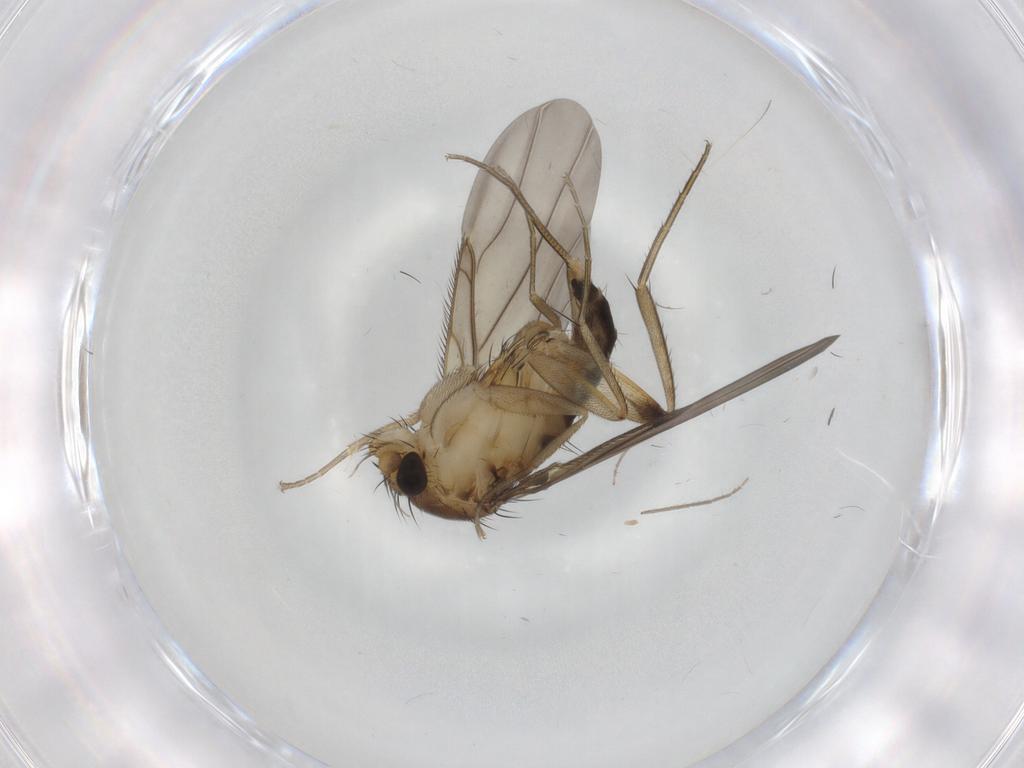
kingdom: Animalia
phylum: Arthropoda
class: Insecta
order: Diptera
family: Phoridae
